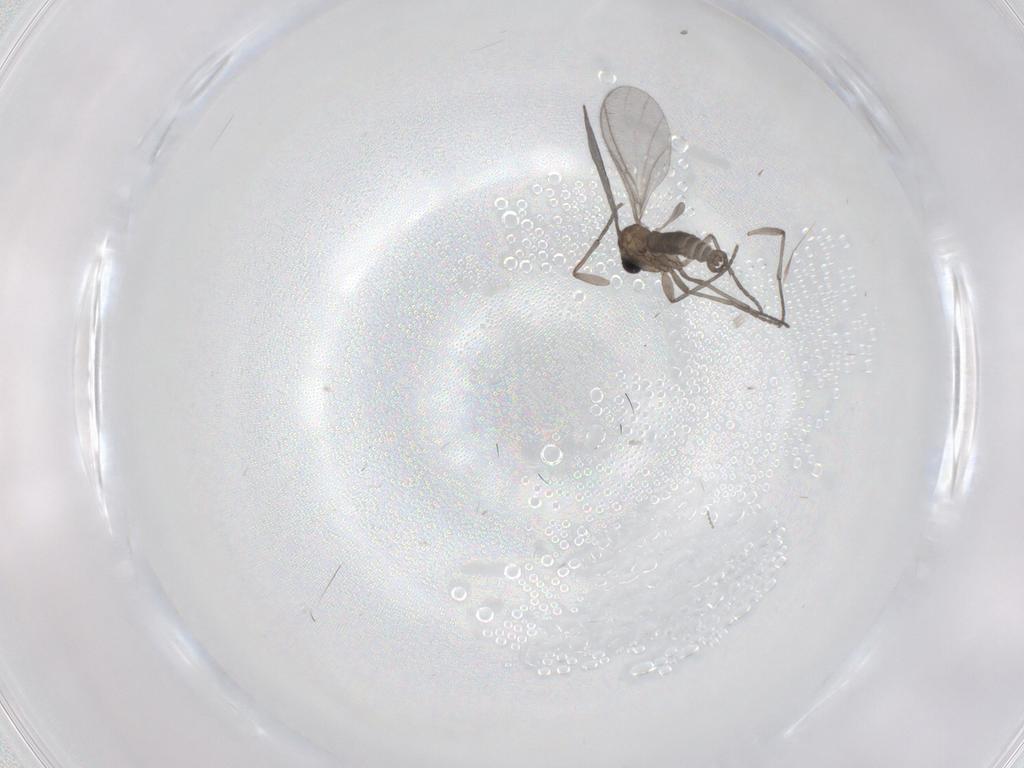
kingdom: Animalia
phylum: Arthropoda
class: Insecta
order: Diptera
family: Sciaridae
